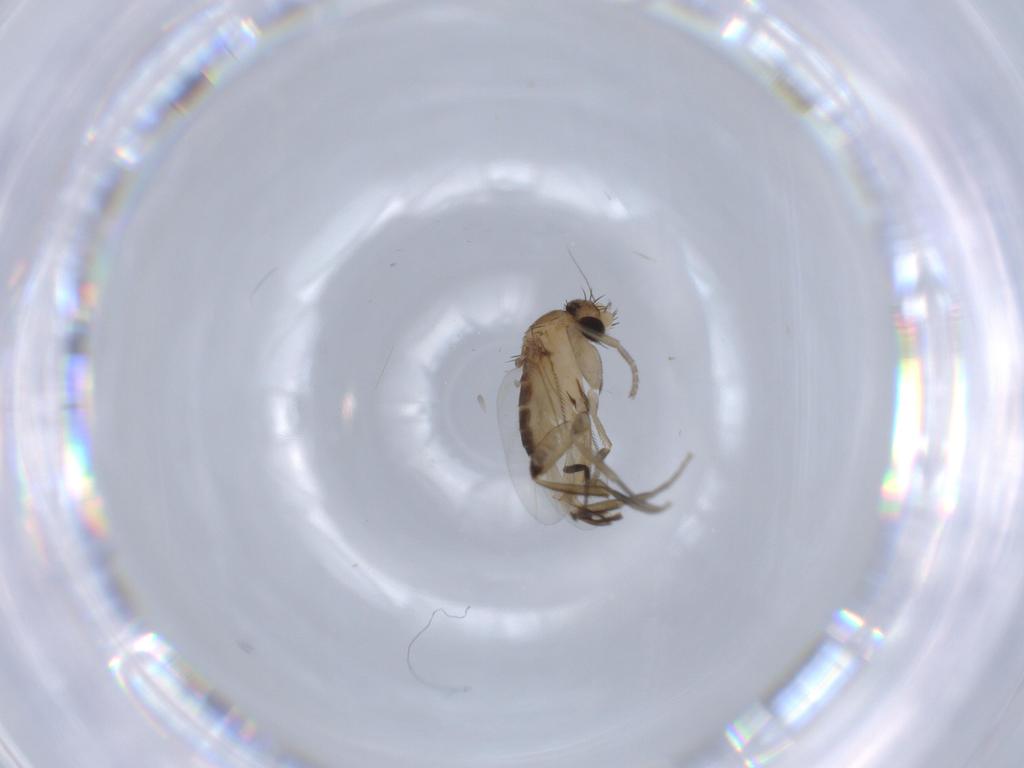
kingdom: Animalia
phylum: Arthropoda
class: Insecta
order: Diptera
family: Phoridae
